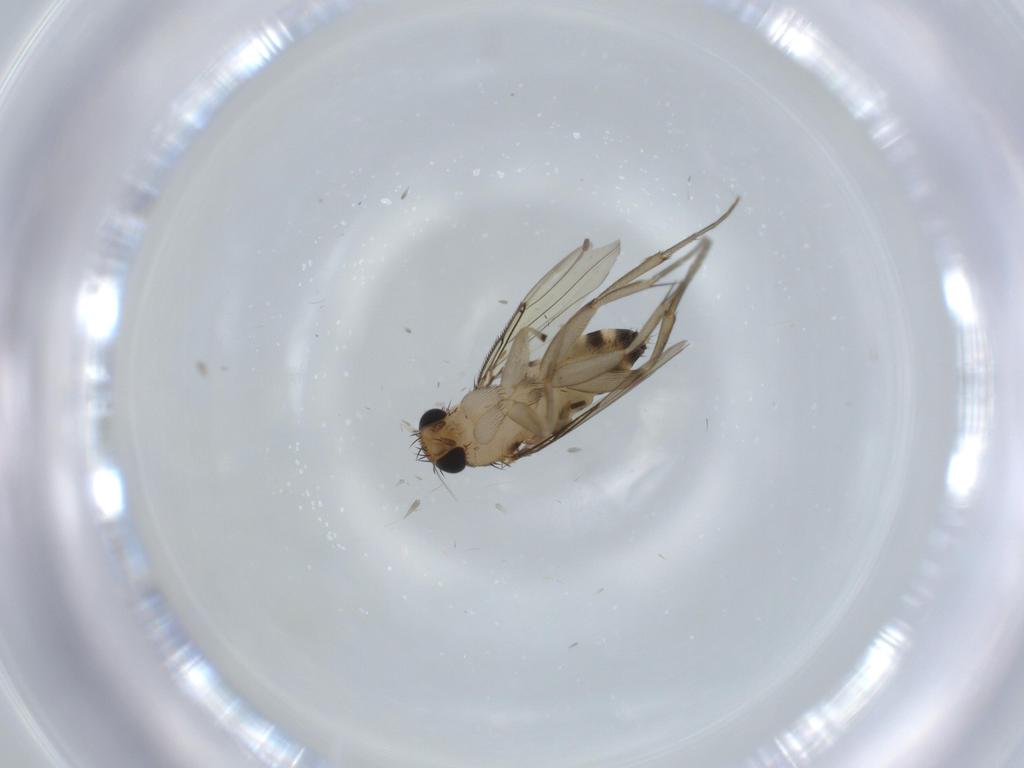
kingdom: Animalia
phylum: Arthropoda
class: Insecta
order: Diptera
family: Phoridae
